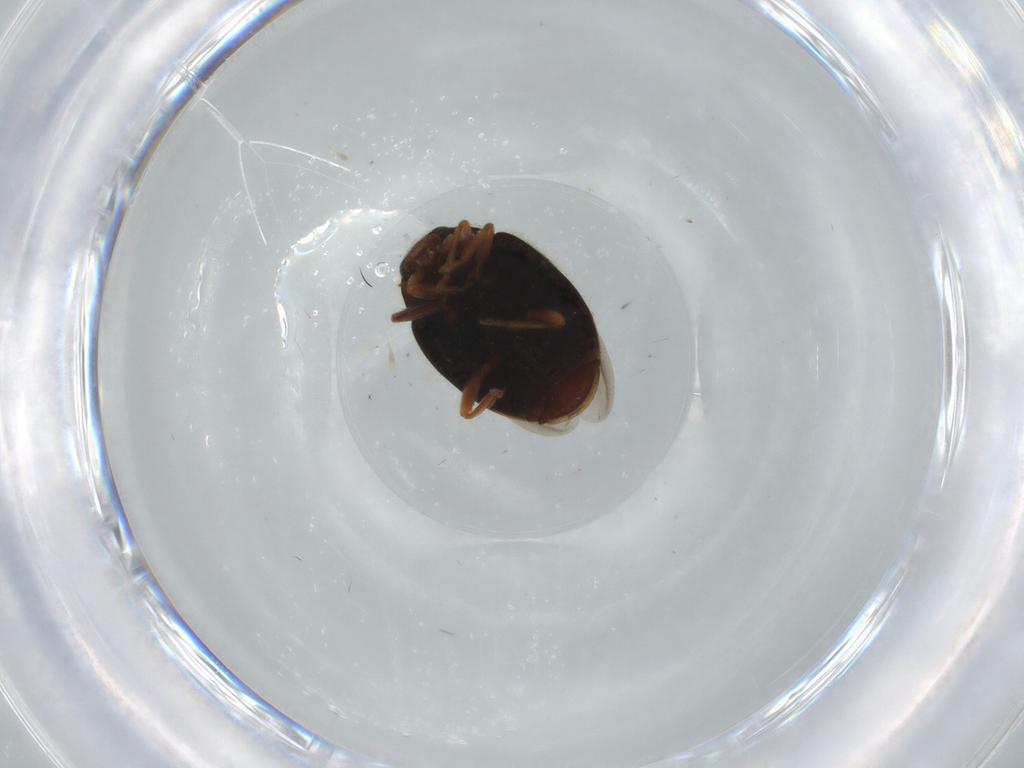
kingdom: Animalia
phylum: Arthropoda
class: Insecta
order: Coleoptera
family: Coccinellidae
